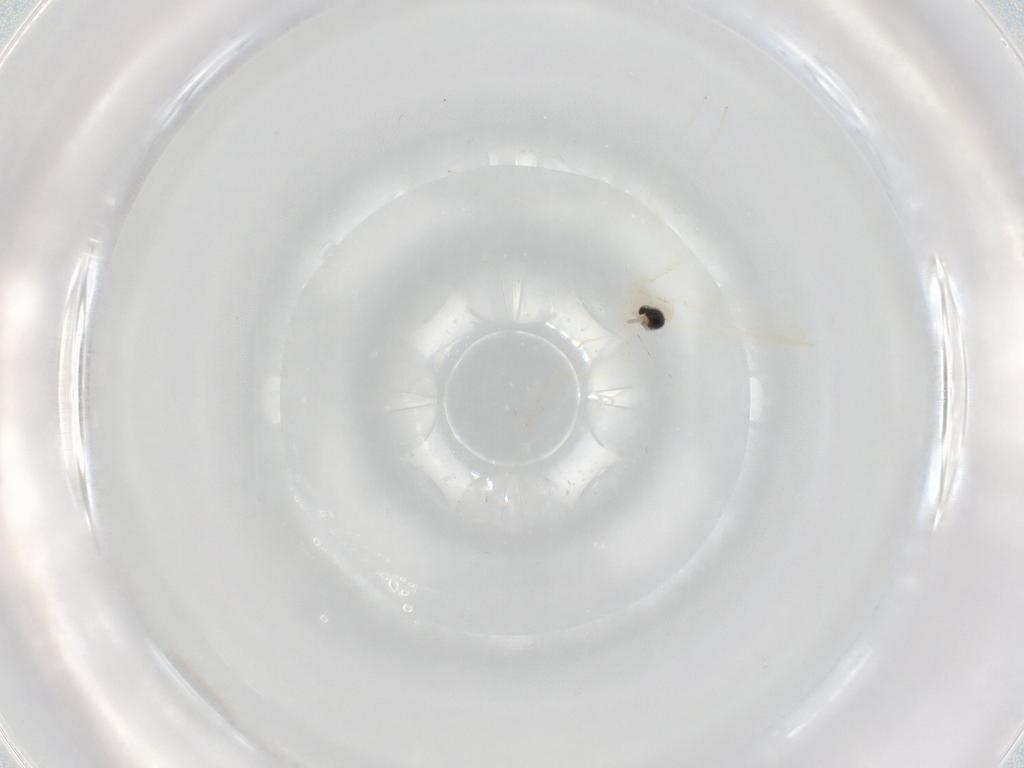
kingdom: Animalia
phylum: Arthropoda
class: Insecta
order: Diptera
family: Cecidomyiidae
